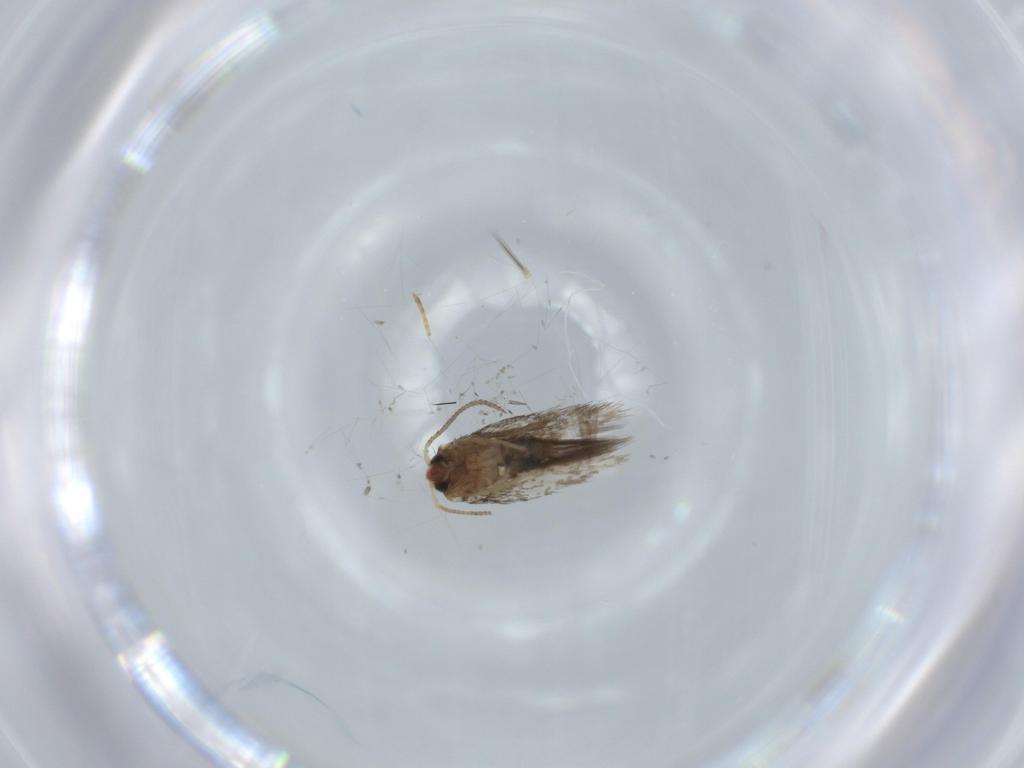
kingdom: Animalia
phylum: Arthropoda
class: Insecta
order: Lepidoptera
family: Nepticulidae
